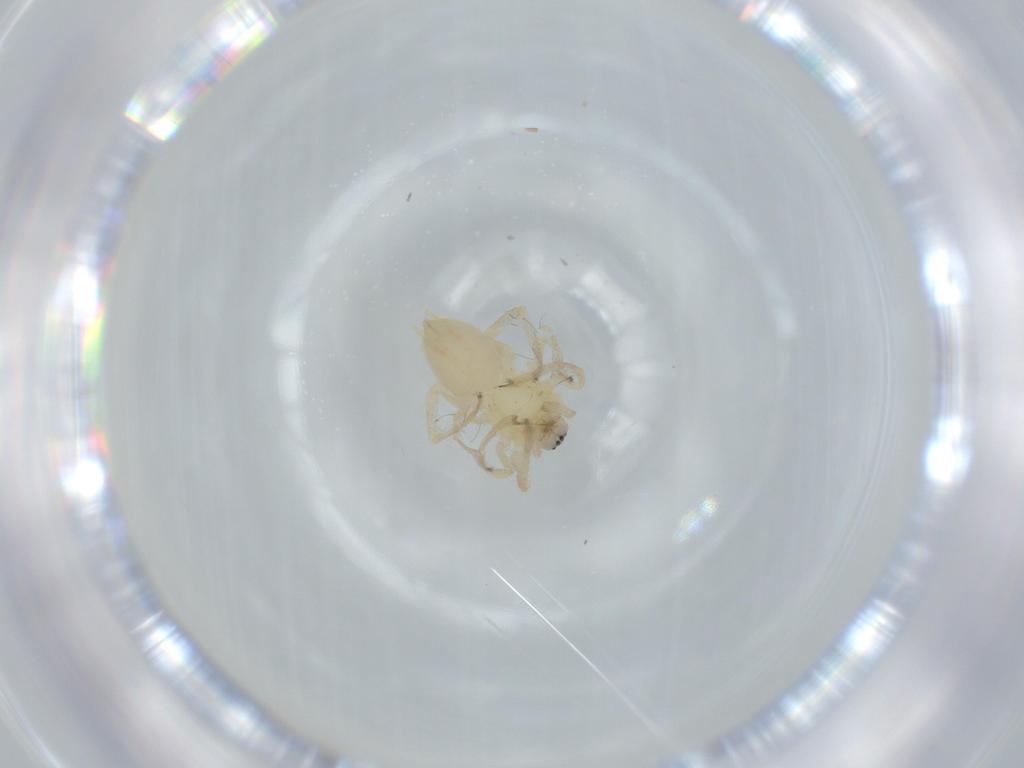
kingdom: Animalia
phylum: Arthropoda
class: Arachnida
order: Araneae
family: Anyphaenidae
